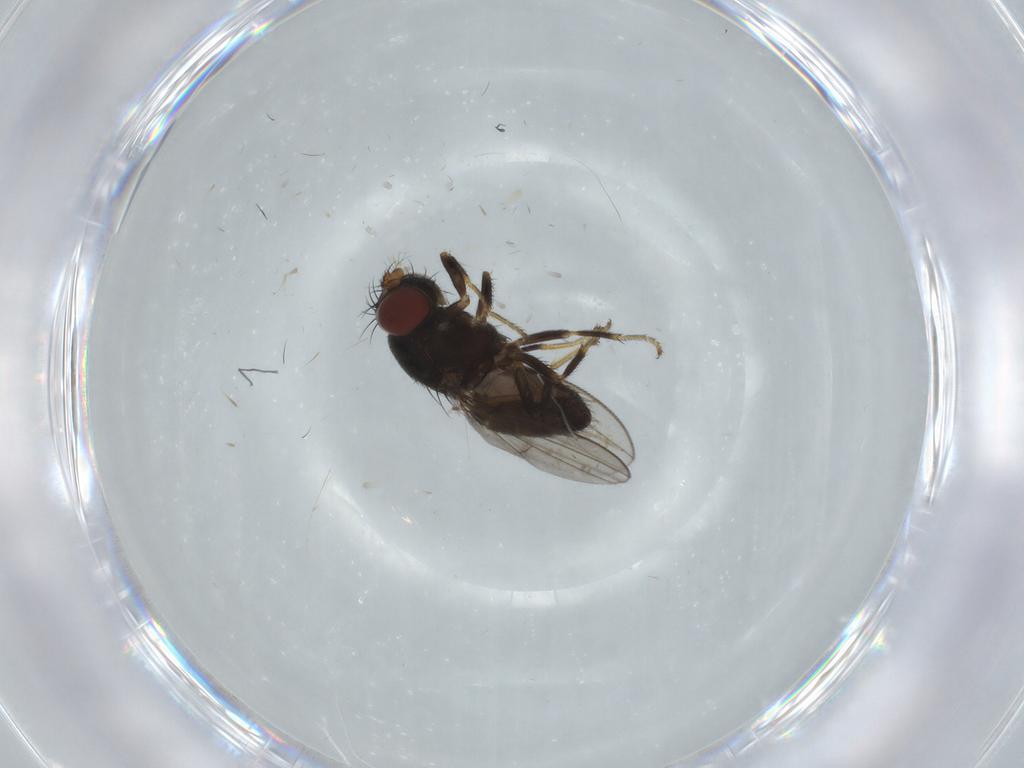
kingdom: Animalia
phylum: Arthropoda
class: Insecta
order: Diptera
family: Chironomidae
